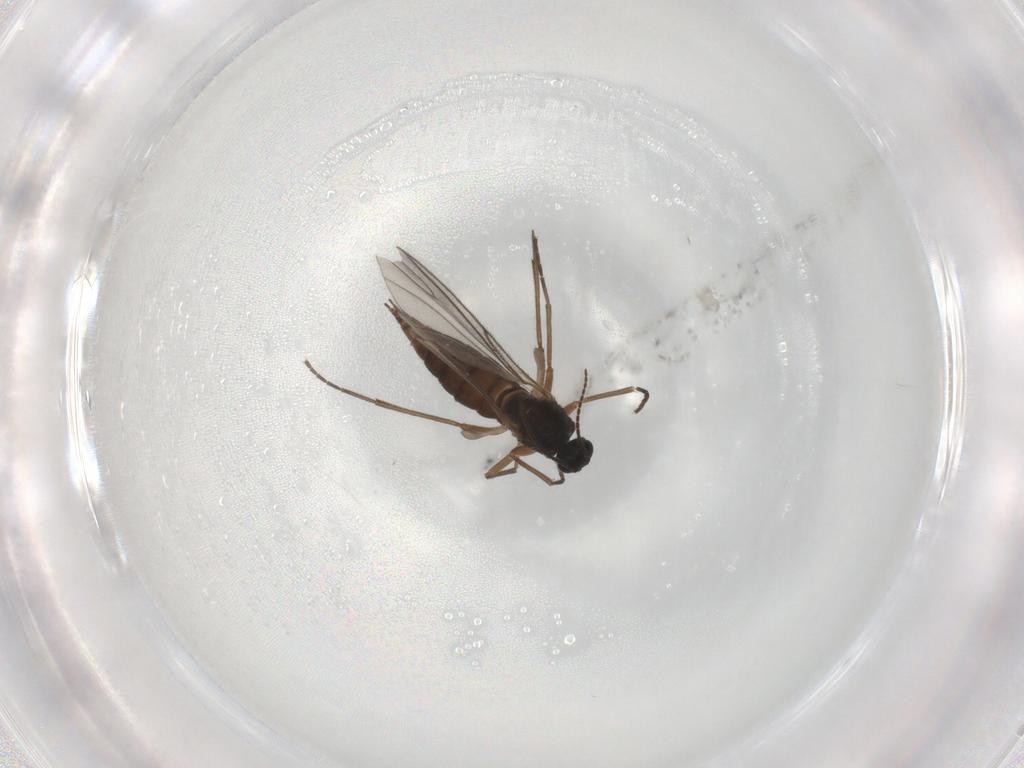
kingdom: Animalia
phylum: Arthropoda
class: Insecta
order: Diptera
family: Sciaridae
